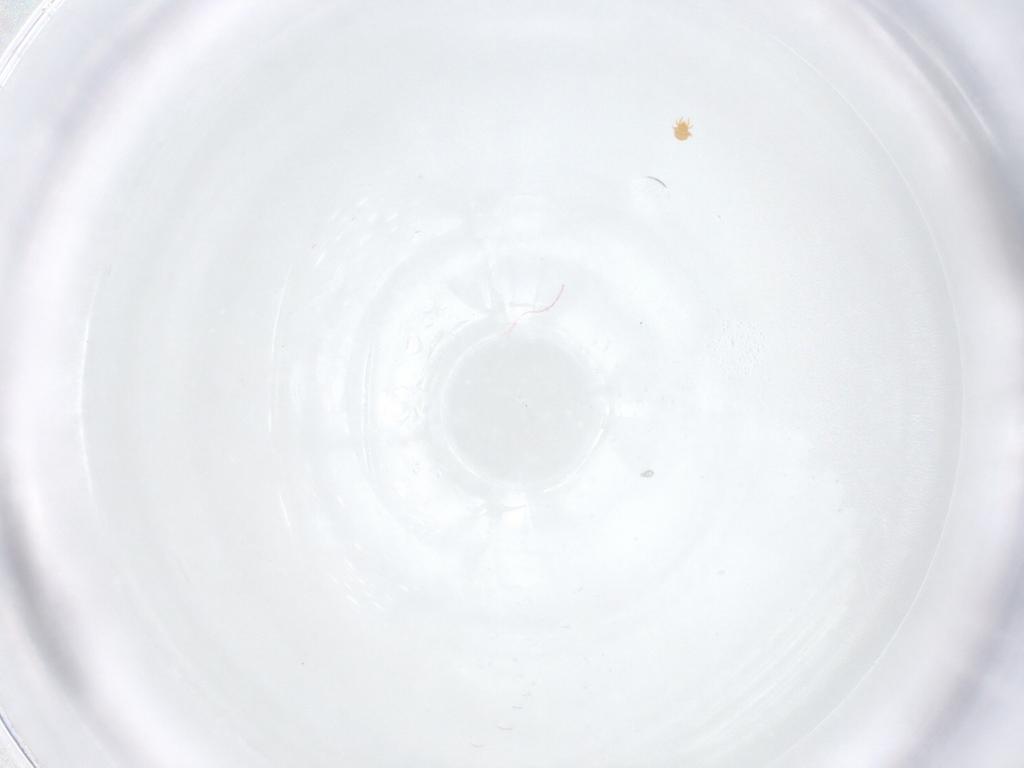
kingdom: Animalia
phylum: Arthropoda
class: Arachnida
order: Sarcoptiformes
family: Brachychthoniidae
